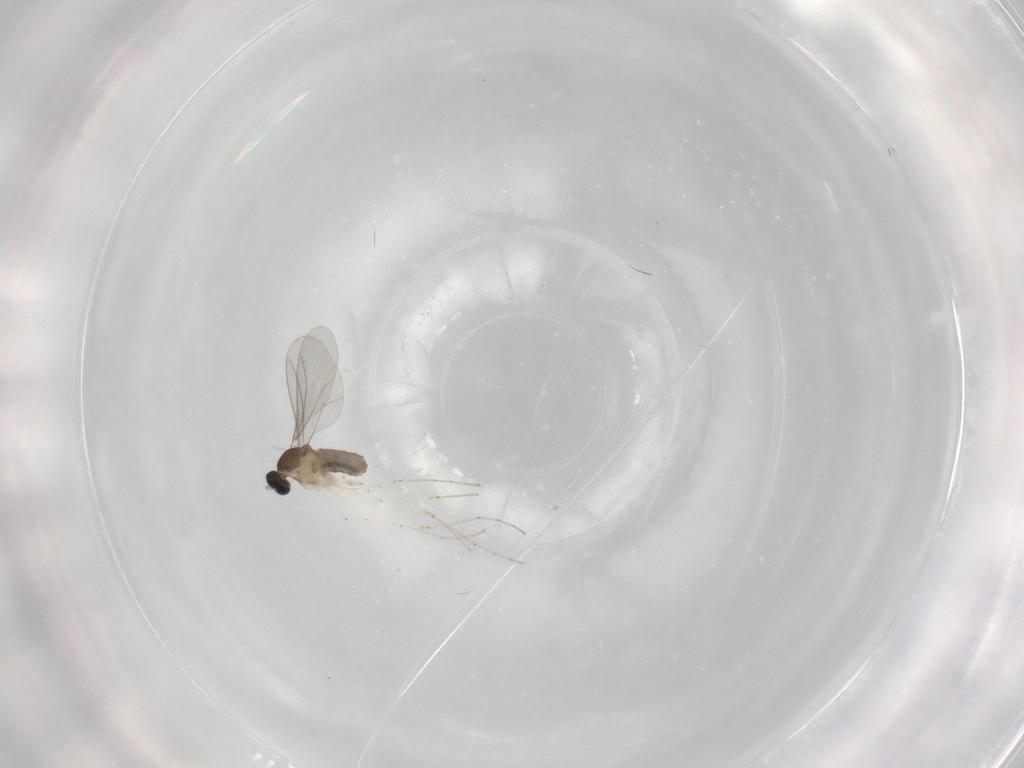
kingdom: Animalia
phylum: Arthropoda
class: Insecta
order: Diptera
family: Cecidomyiidae
